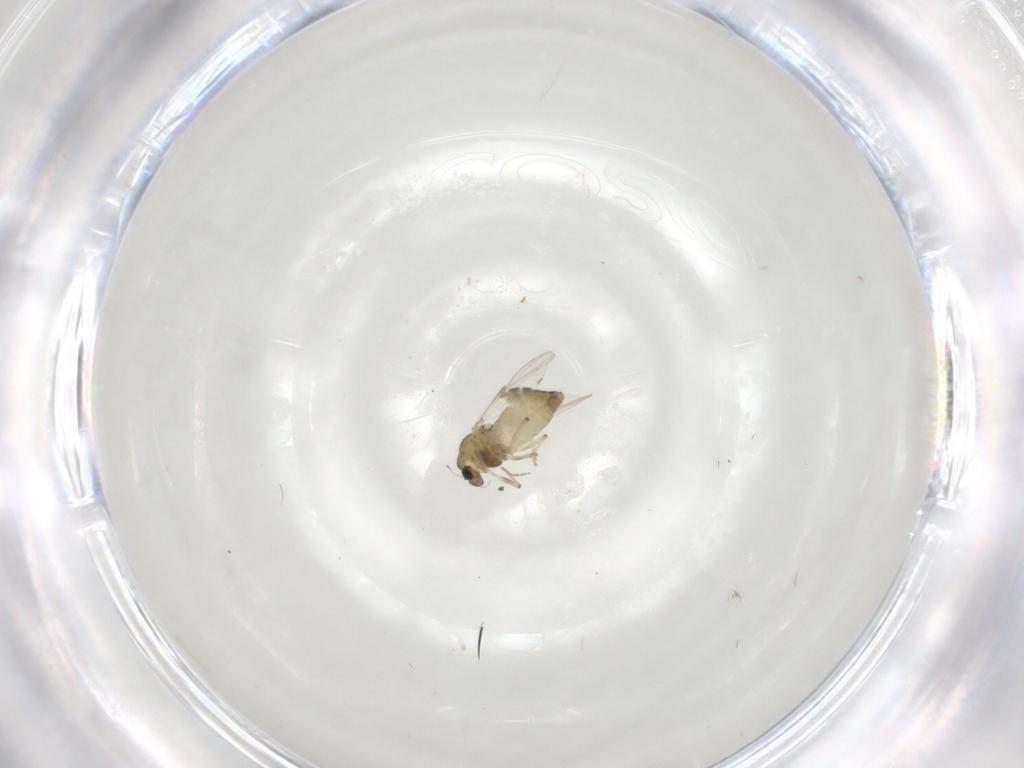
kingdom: Animalia
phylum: Arthropoda
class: Insecta
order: Diptera
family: Chironomidae
